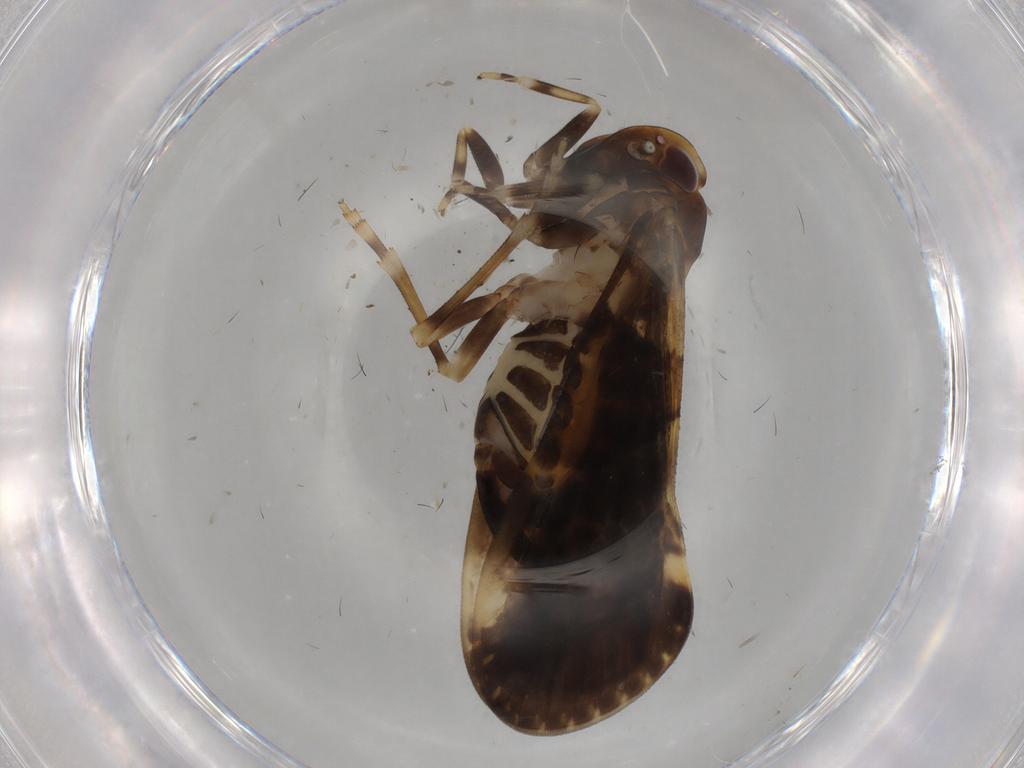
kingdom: Animalia
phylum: Arthropoda
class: Insecta
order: Hemiptera
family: Cixiidae
